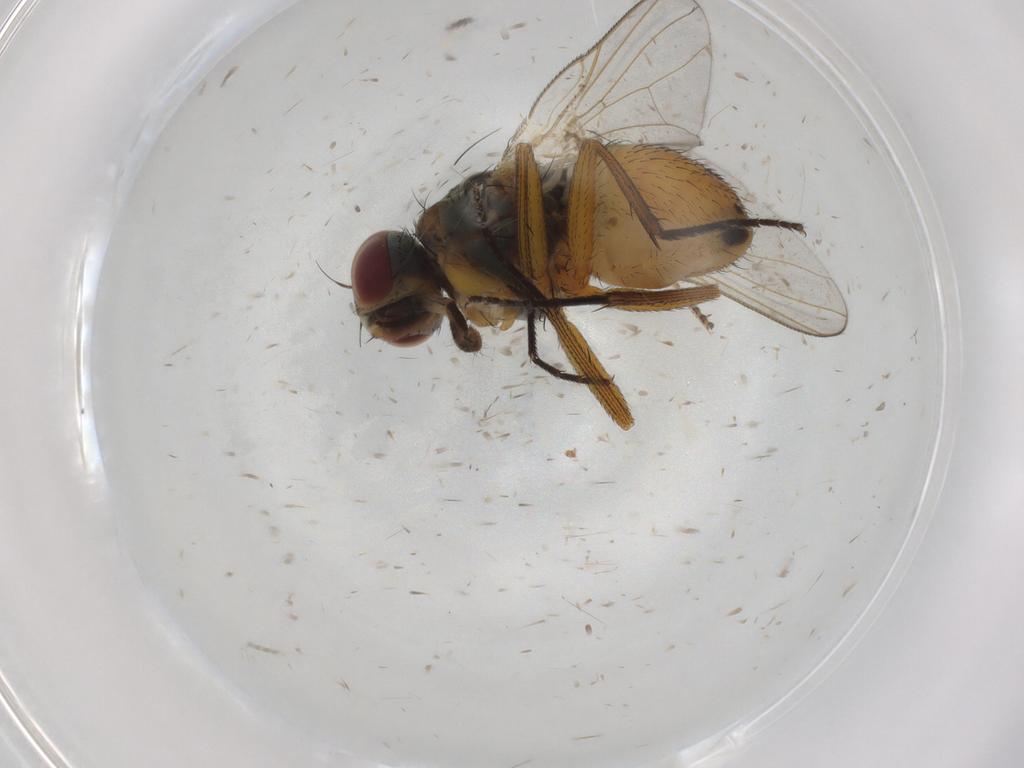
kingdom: Animalia
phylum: Arthropoda
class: Insecta
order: Diptera
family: Muscidae
